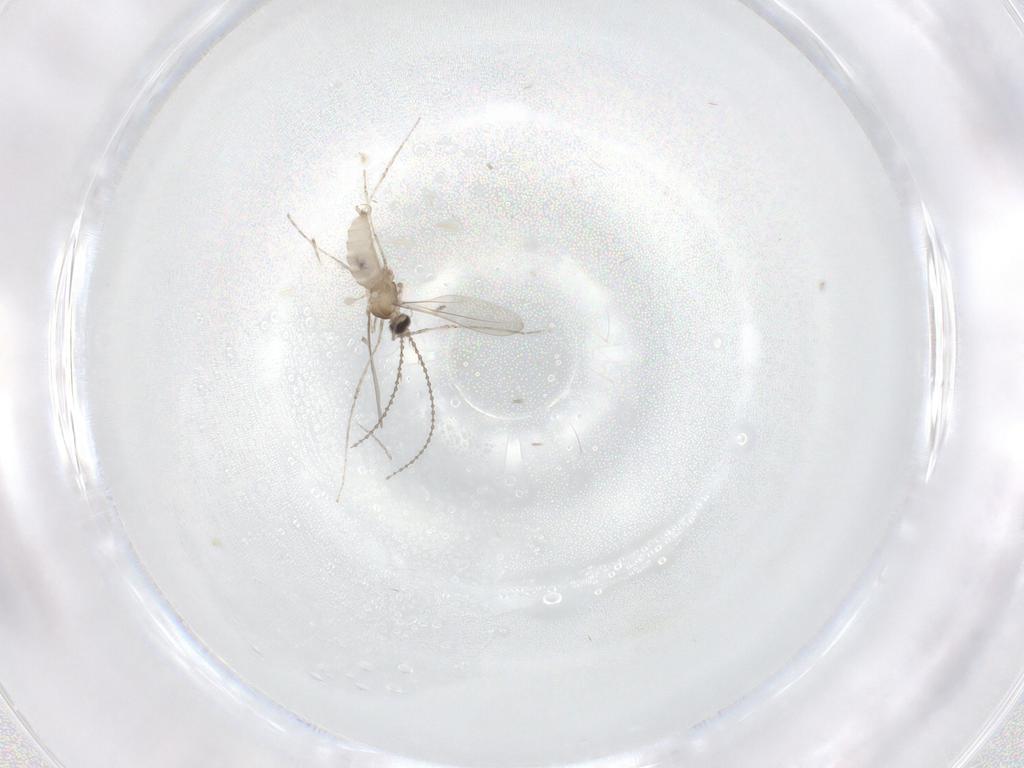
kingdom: Animalia
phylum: Arthropoda
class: Insecta
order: Diptera
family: Cecidomyiidae
